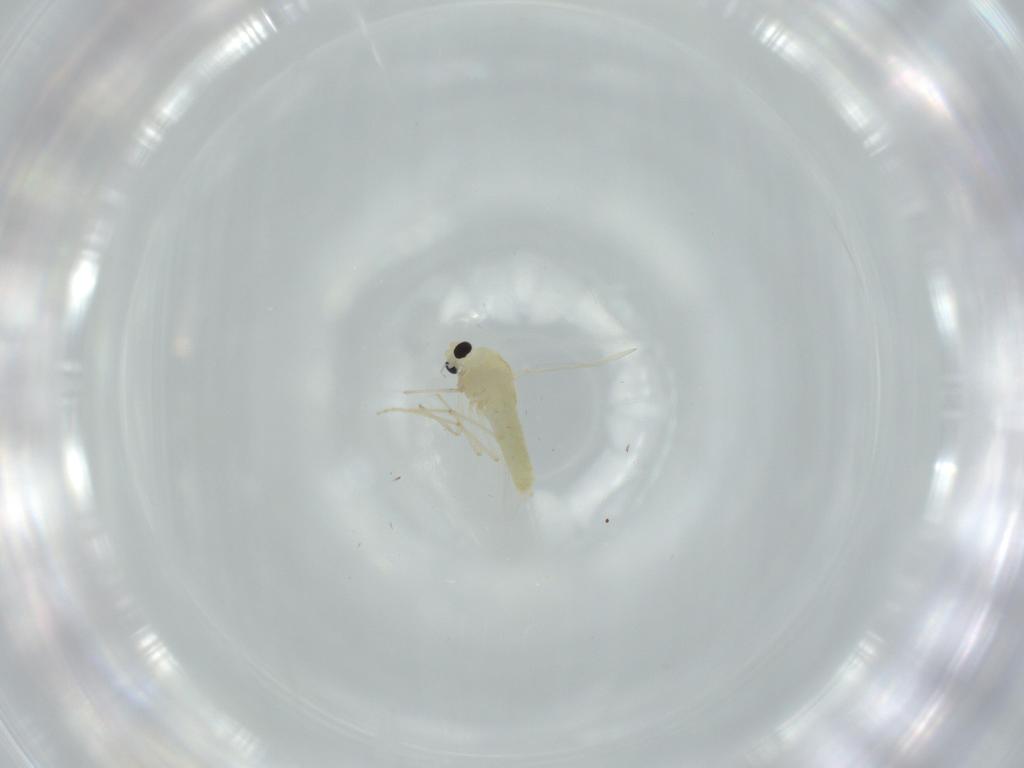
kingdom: Animalia
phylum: Arthropoda
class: Insecta
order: Diptera
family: Chironomidae
